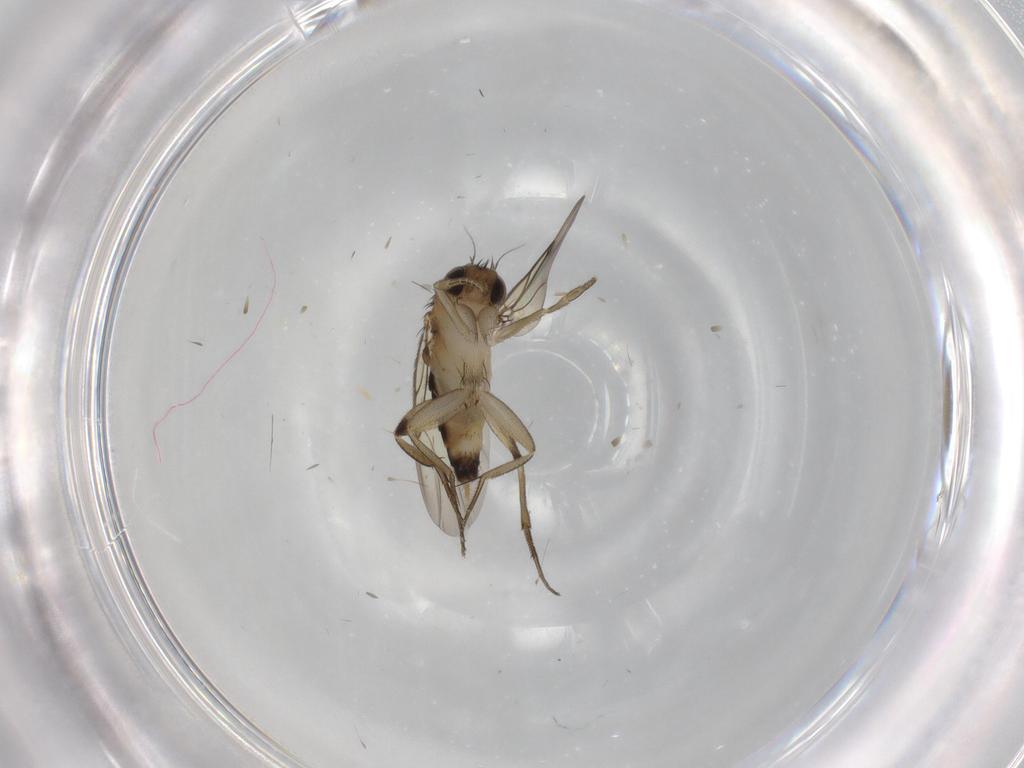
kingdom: Animalia
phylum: Arthropoda
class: Insecta
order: Diptera
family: Phoridae
